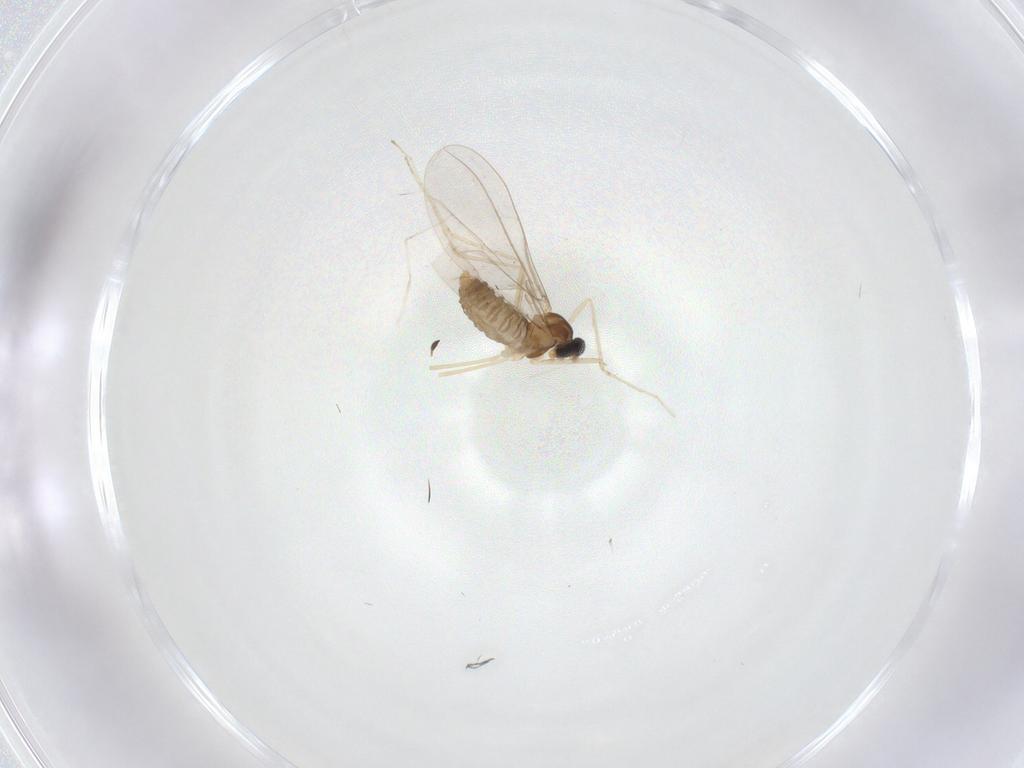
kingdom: Animalia
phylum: Arthropoda
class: Insecta
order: Diptera
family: Cecidomyiidae
